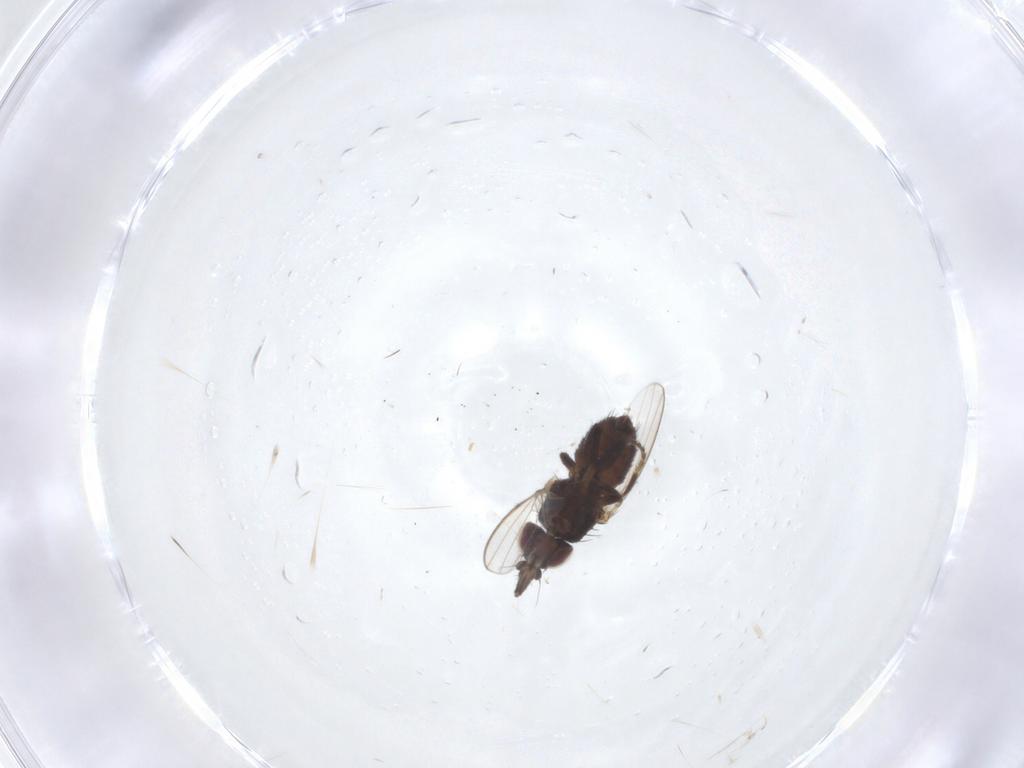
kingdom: Animalia
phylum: Arthropoda
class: Insecta
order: Diptera
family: Milichiidae
